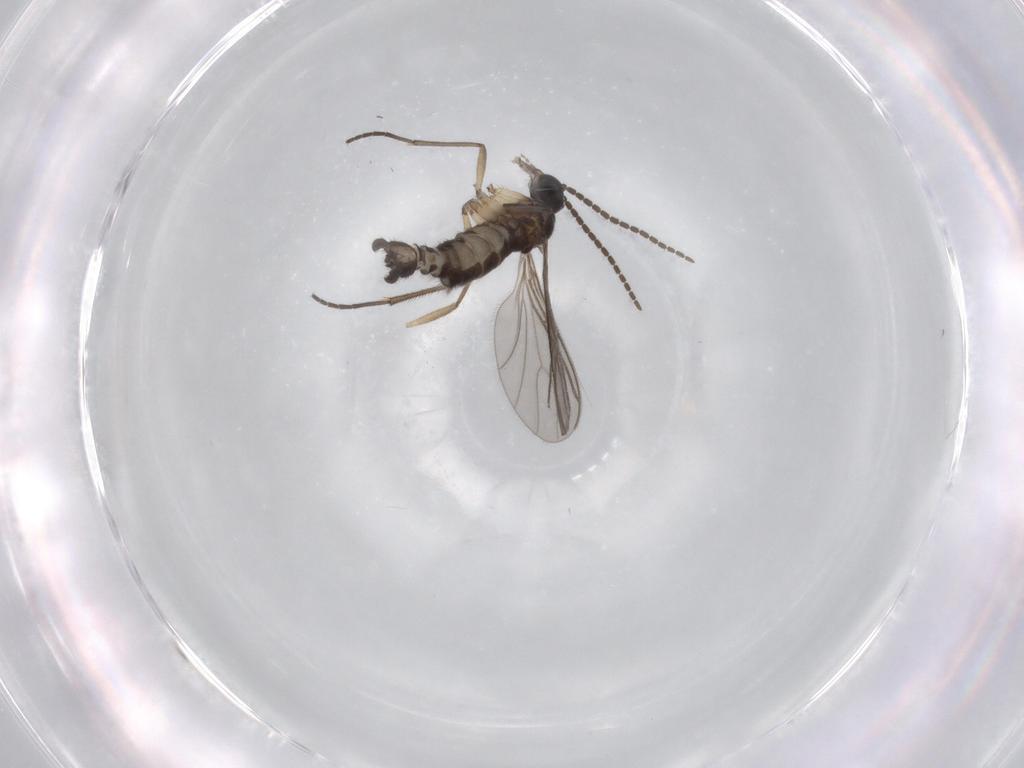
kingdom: Animalia
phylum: Arthropoda
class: Insecta
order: Diptera
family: Sciaridae
